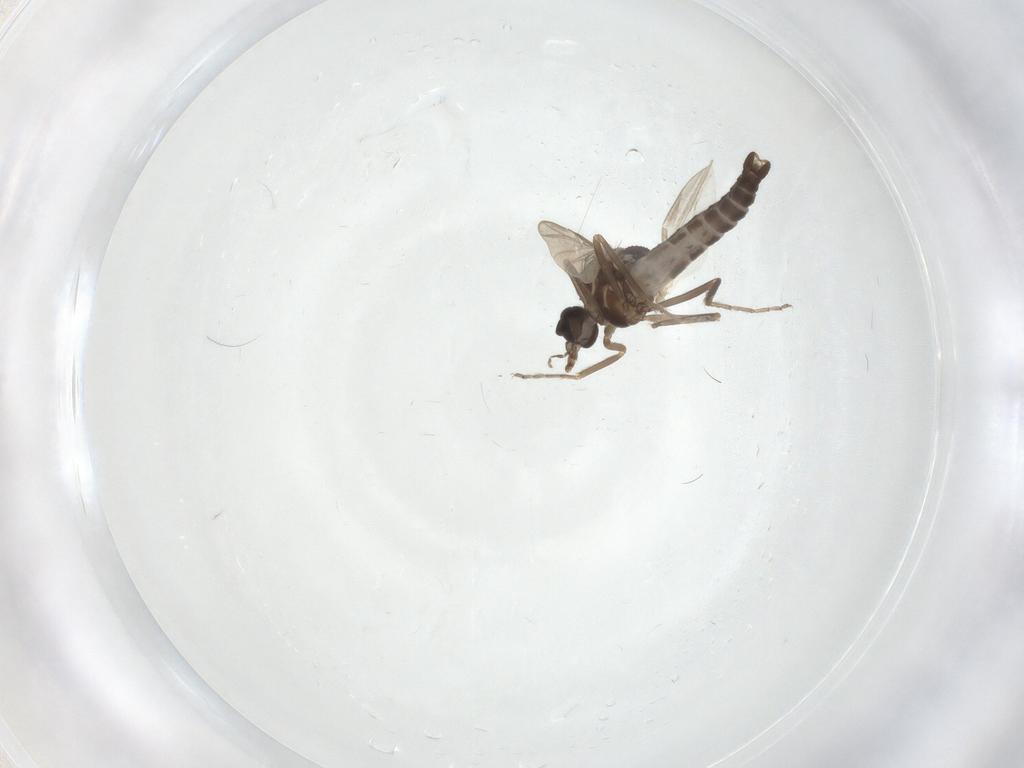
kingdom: Animalia
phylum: Arthropoda
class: Insecta
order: Diptera
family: Ceratopogonidae
